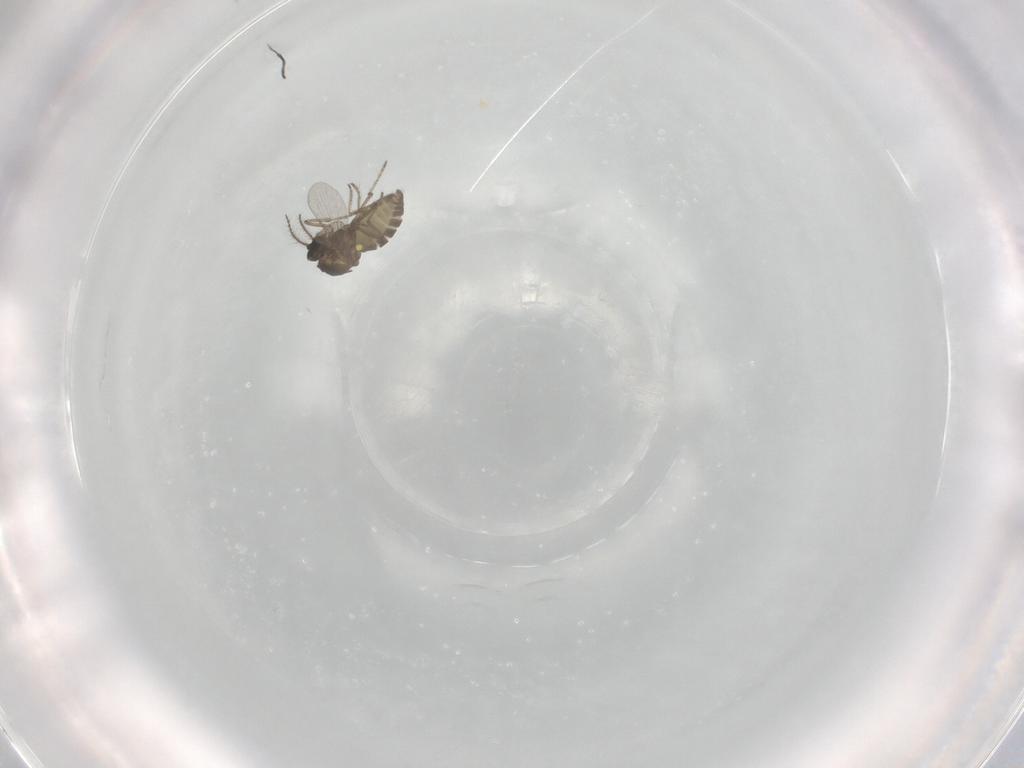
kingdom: Animalia
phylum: Arthropoda
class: Insecta
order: Diptera
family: Ceratopogonidae
